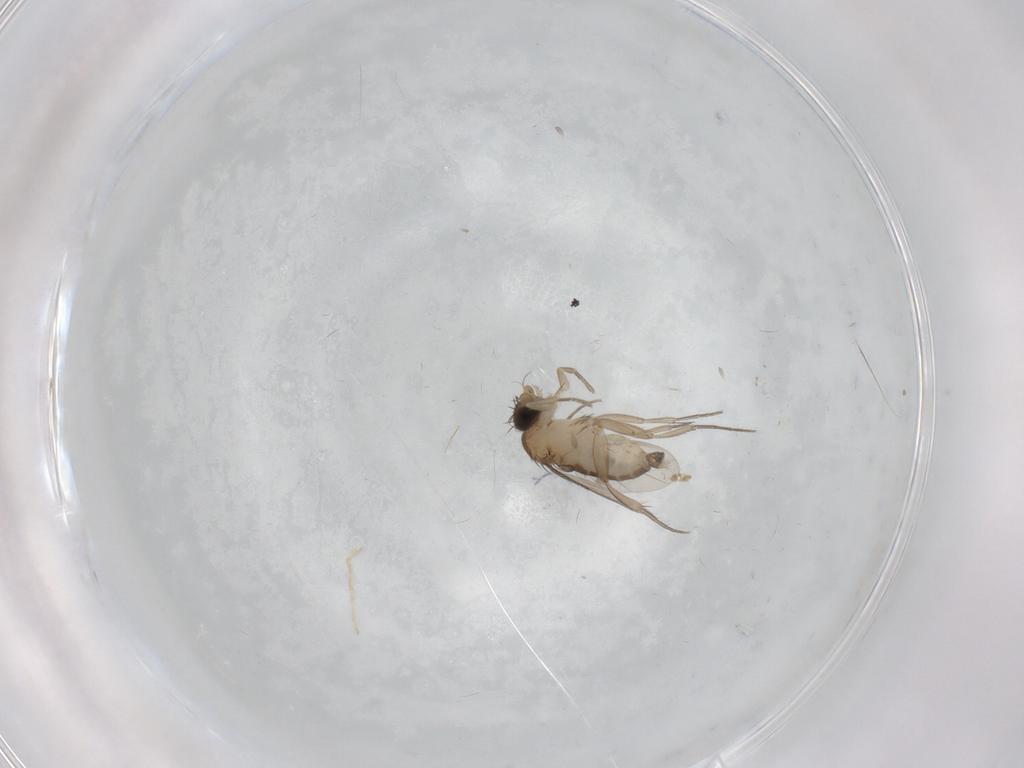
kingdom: Animalia
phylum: Arthropoda
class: Insecta
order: Diptera
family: Phoridae
